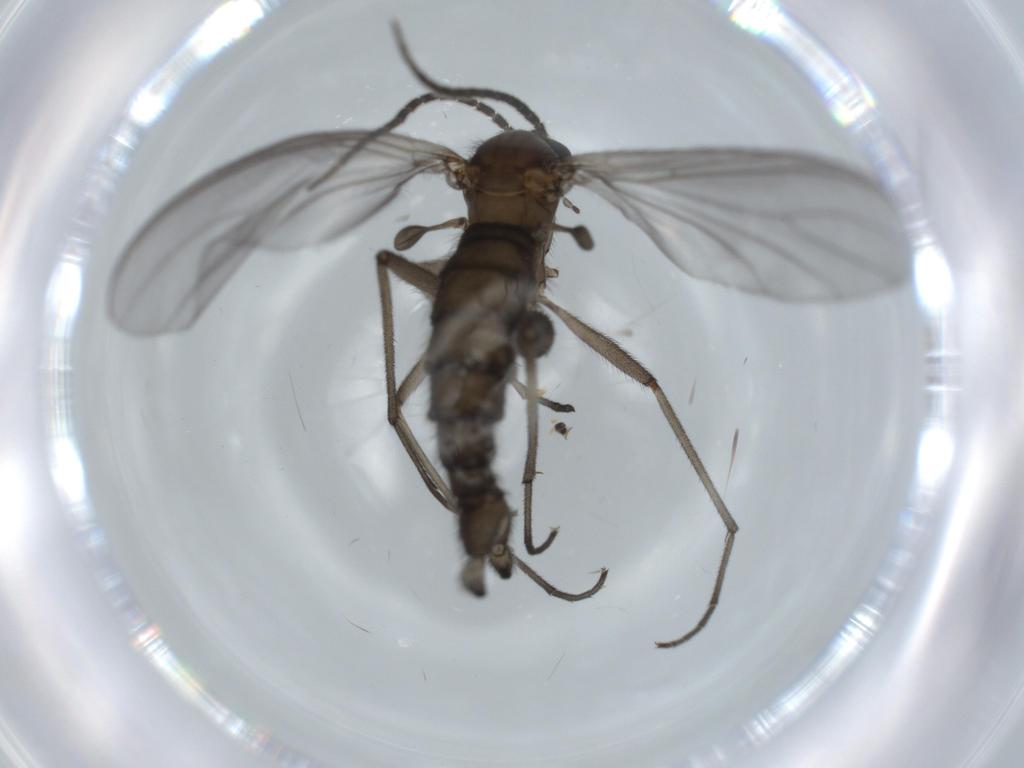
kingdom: Animalia
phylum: Arthropoda
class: Insecta
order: Diptera
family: Cecidomyiidae
